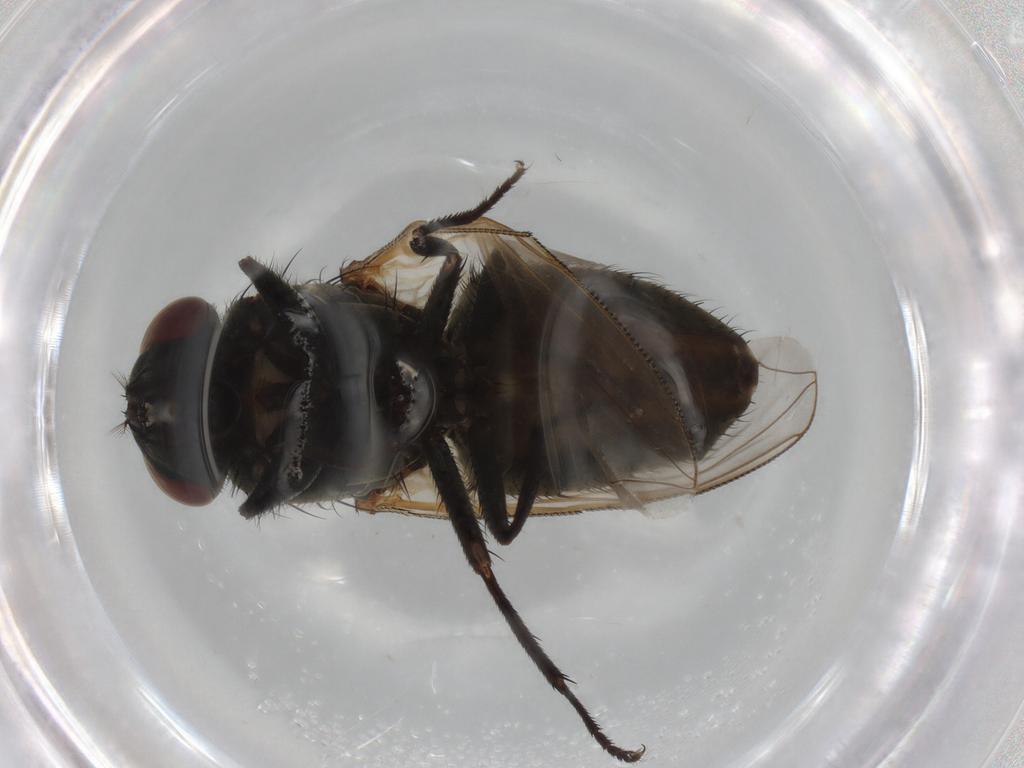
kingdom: Animalia
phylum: Arthropoda
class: Insecta
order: Diptera
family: Muscidae
